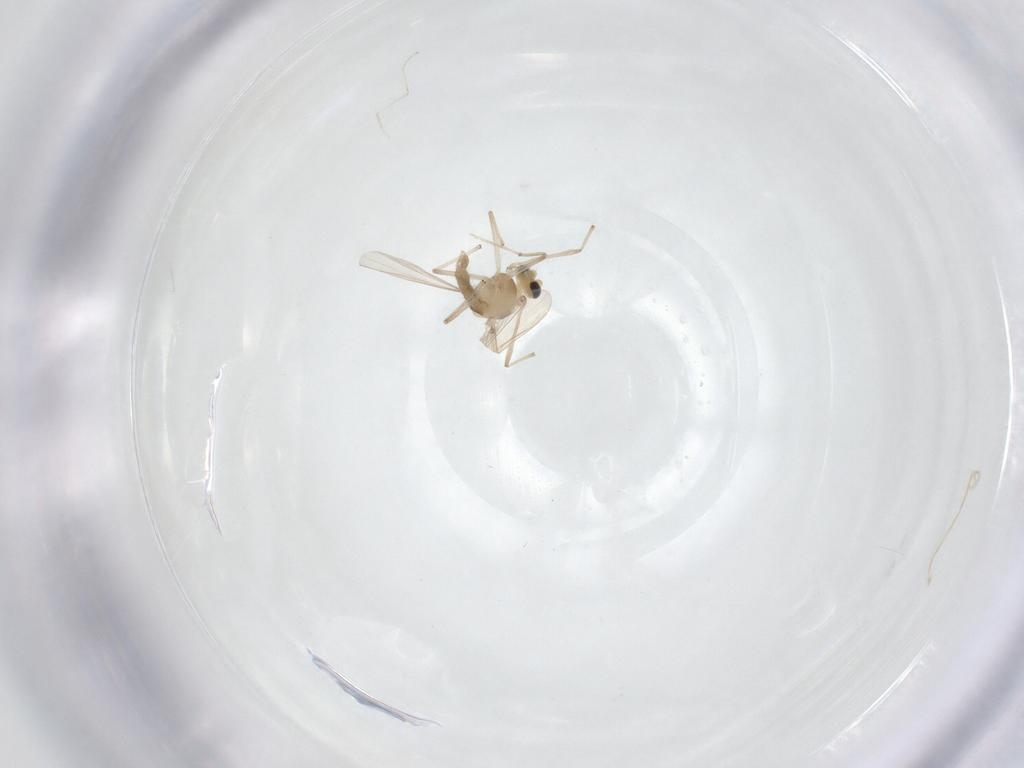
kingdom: Animalia
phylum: Arthropoda
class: Insecta
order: Diptera
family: Chironomidae
